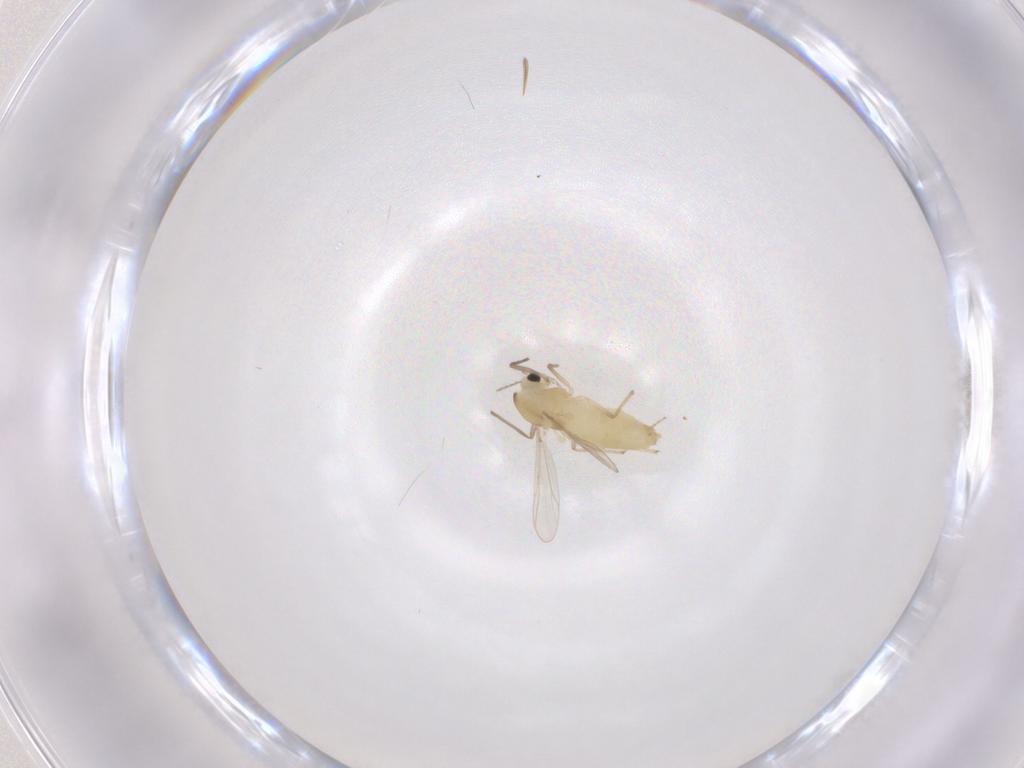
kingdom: Animalia
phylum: Arthropoda
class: Insecta
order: Diptera
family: Chironomidae
